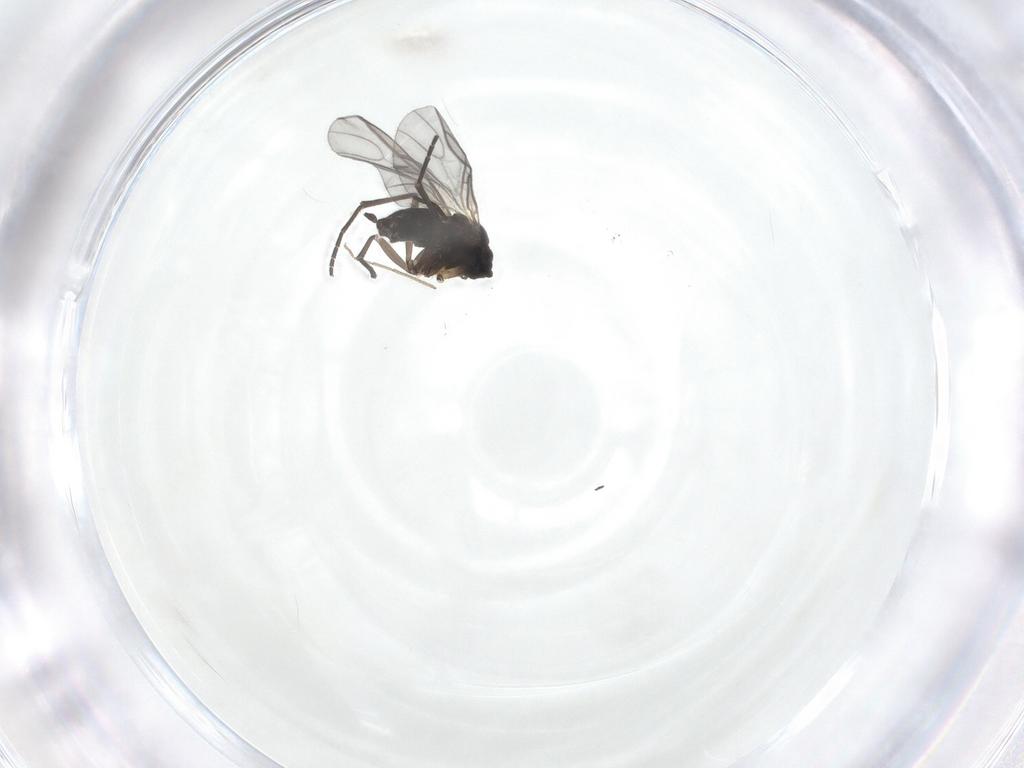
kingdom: Animalia
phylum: Arthropoda
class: Insecta
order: Diptera
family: Sciaridae
